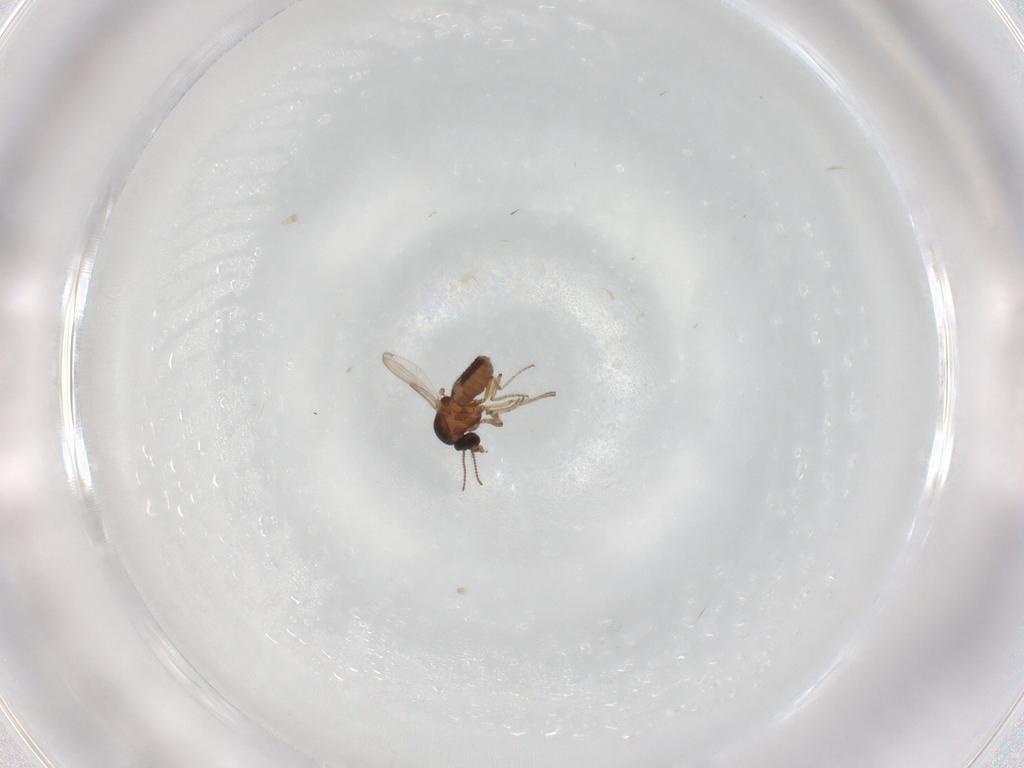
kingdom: Animalia
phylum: Arthropoda
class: Insecta
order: Diptera
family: Ceratopogonidae
